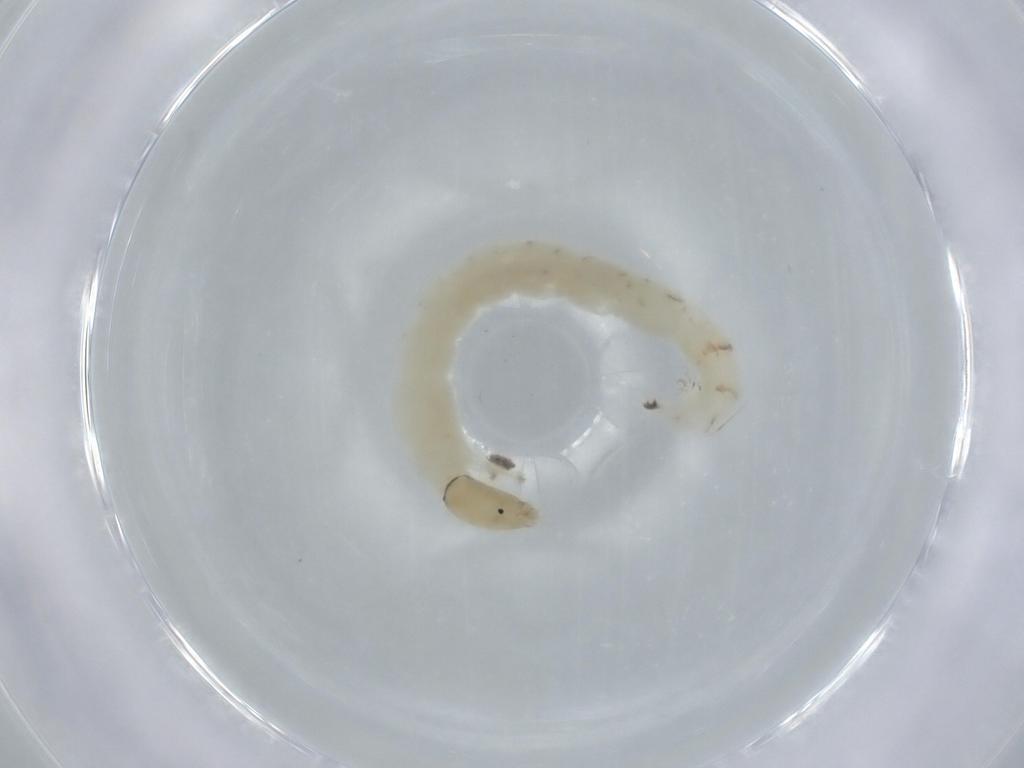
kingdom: Animalia
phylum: Arthropoda
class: Insecta
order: Diptera
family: Chironomidae
